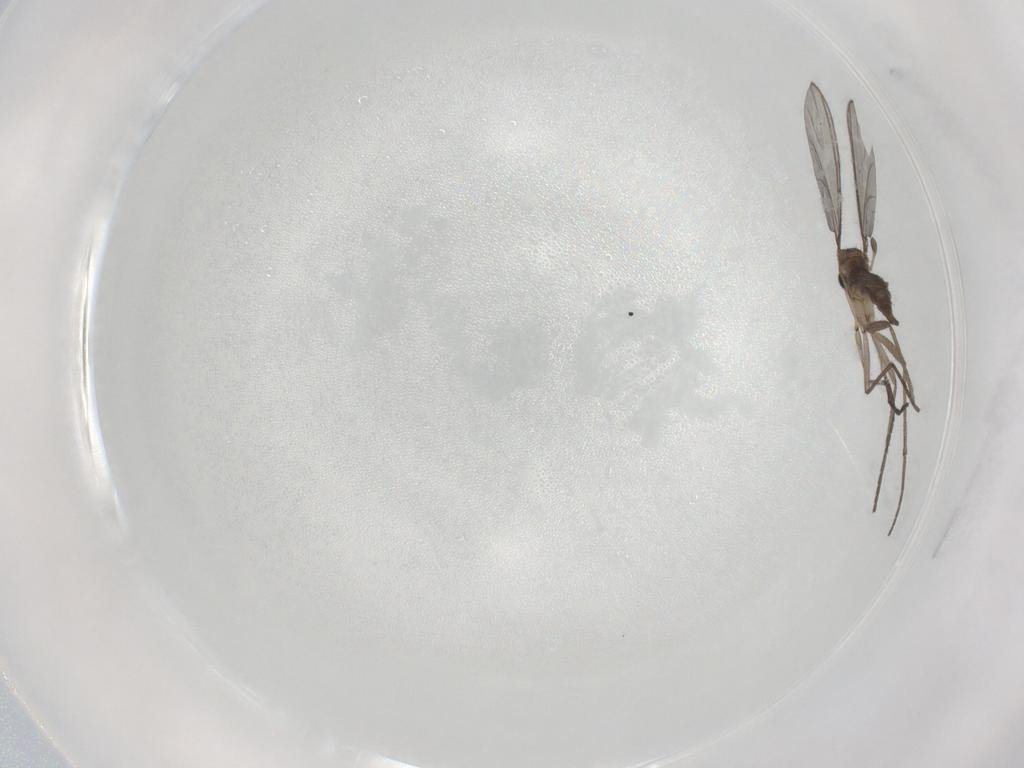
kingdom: Animalia
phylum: Arthropoda
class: Insecta
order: Diptera
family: Sciaridae
